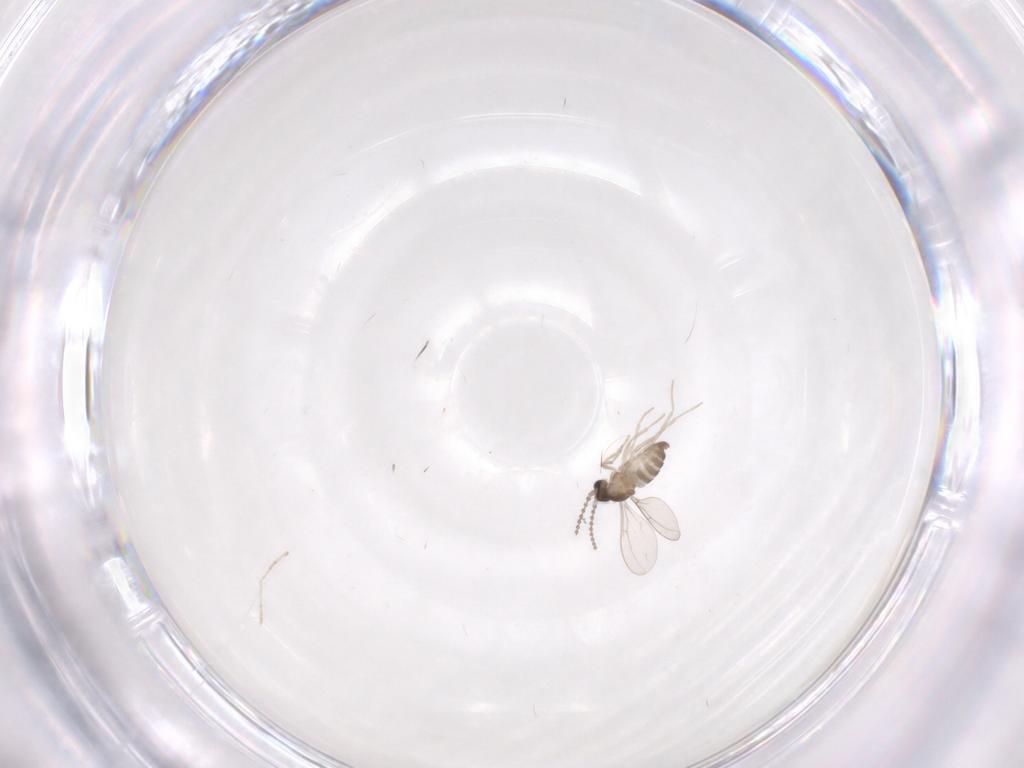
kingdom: Animalia
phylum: Arthropoda
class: Insecta
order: Diptera
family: Cecidomyiidae
